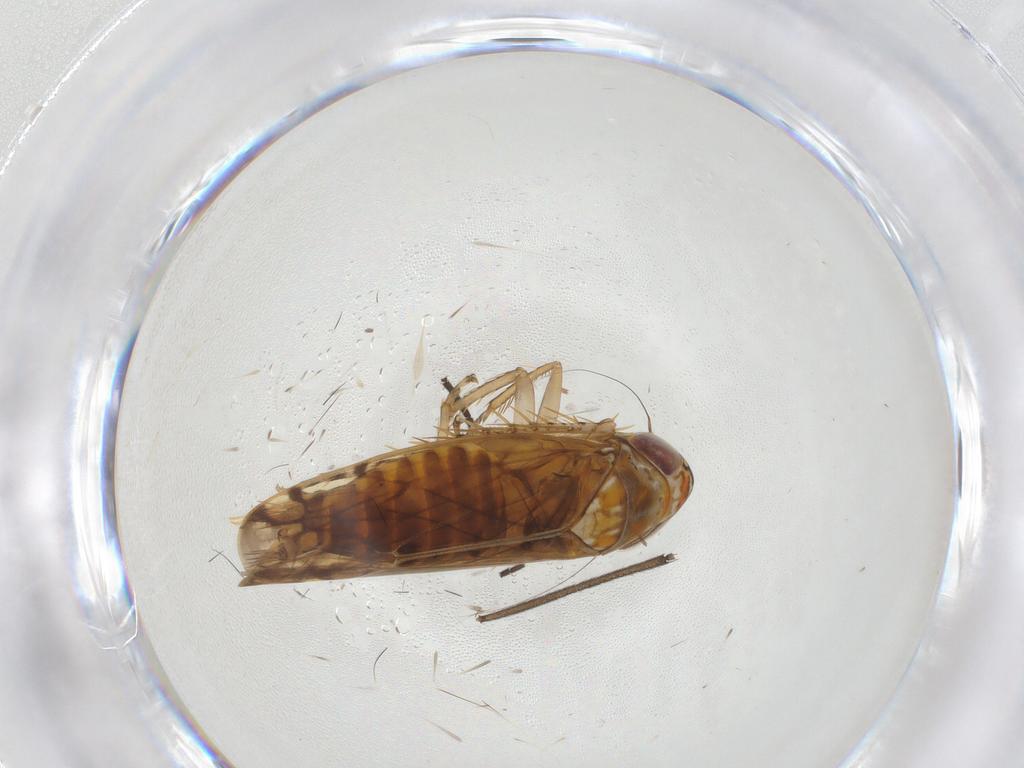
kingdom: Animalia
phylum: Arthropoda
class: Insecta
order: Hemiptera
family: Cicadellidae
